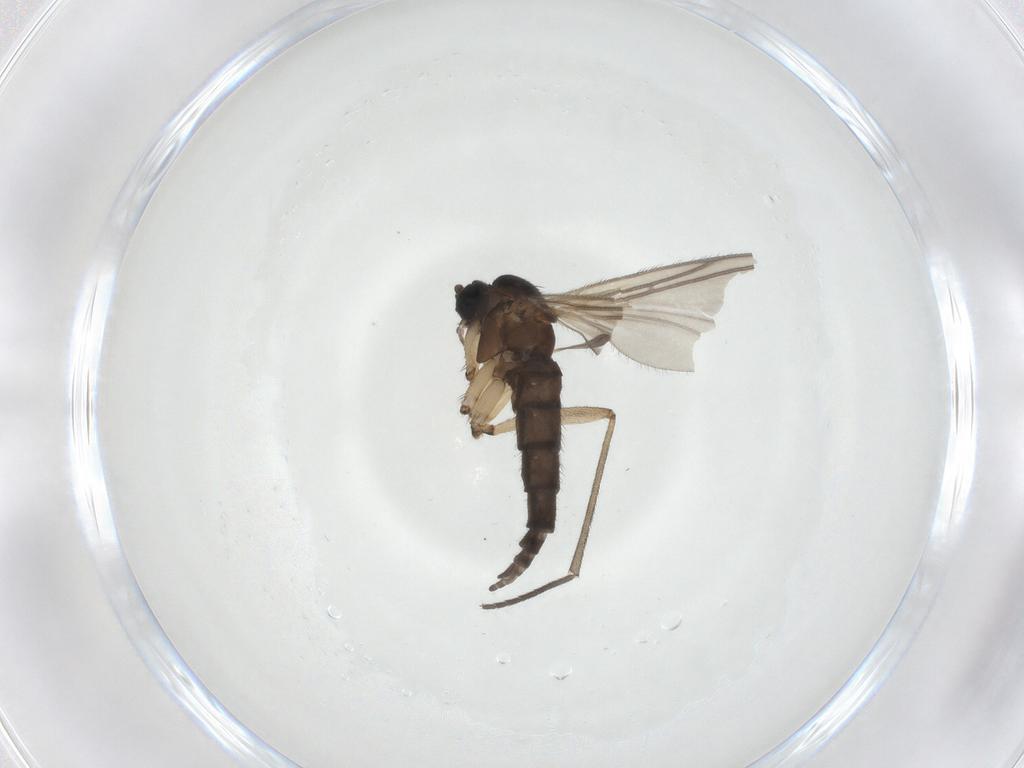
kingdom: Animalia
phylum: Arthropoda
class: Insecta
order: Diptera
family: Sciaridae
